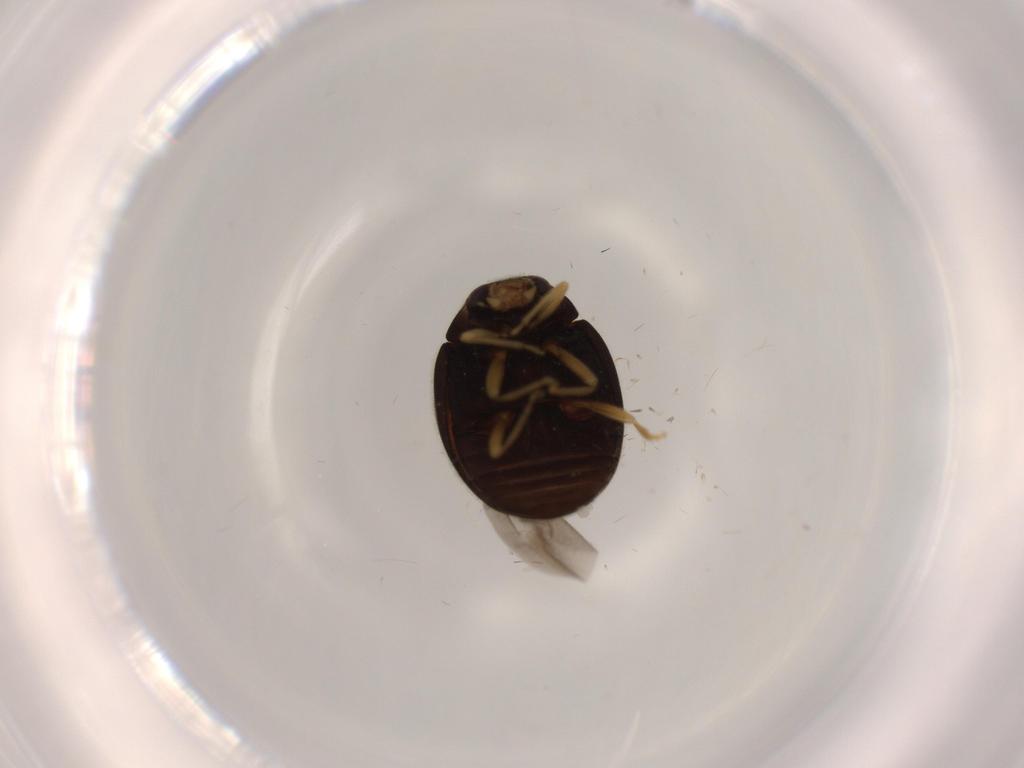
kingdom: Animalia
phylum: Arthropoda
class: Insecta
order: Coleoptera
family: Coccinellidae
